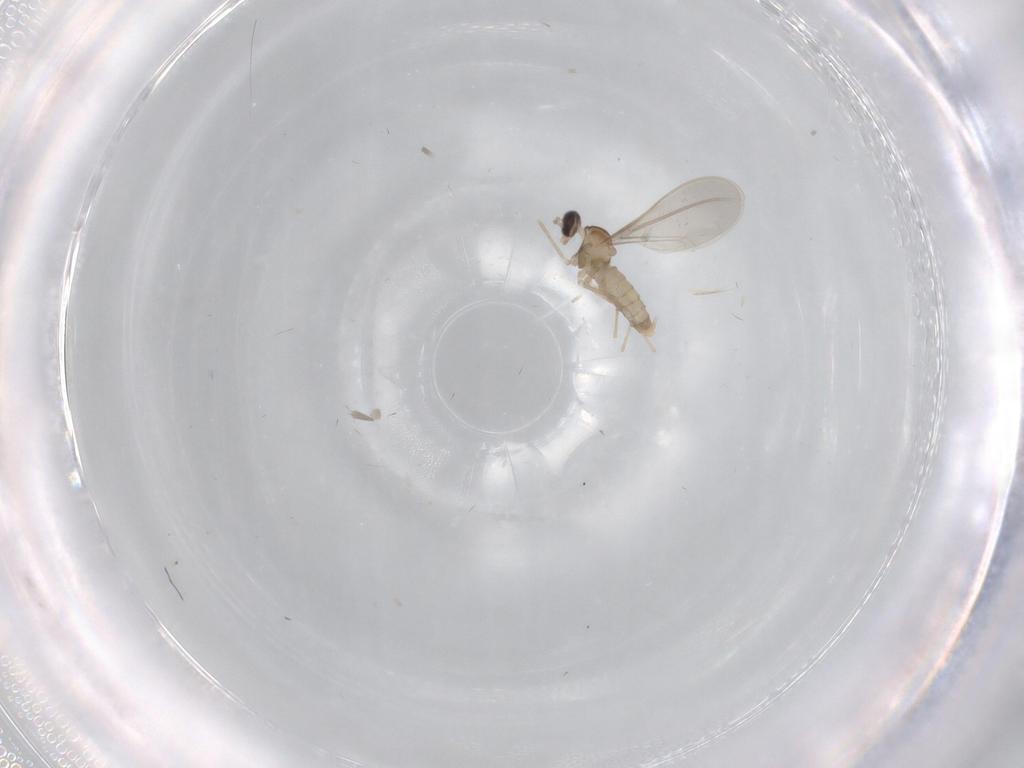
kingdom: Animalia
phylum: Arthropoda
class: Insecta
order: Diptera
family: Cecidomyiidae
